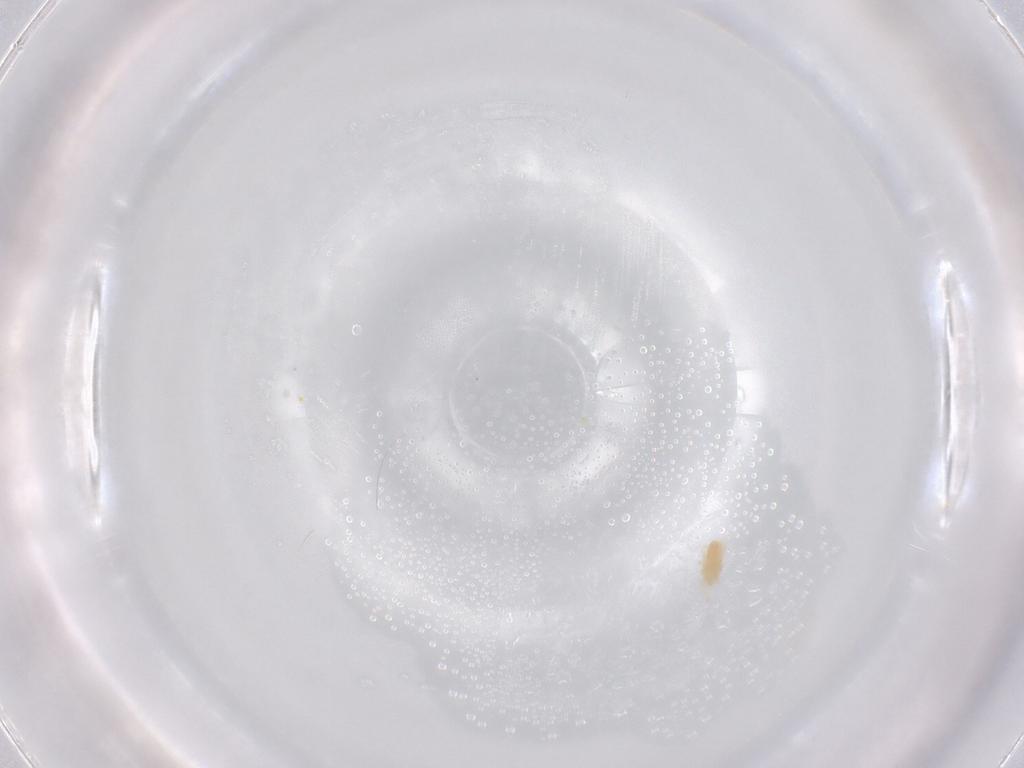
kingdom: Animalia
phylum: Arthropoda
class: Arachnida
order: Trombidiformes
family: Eupodidae
